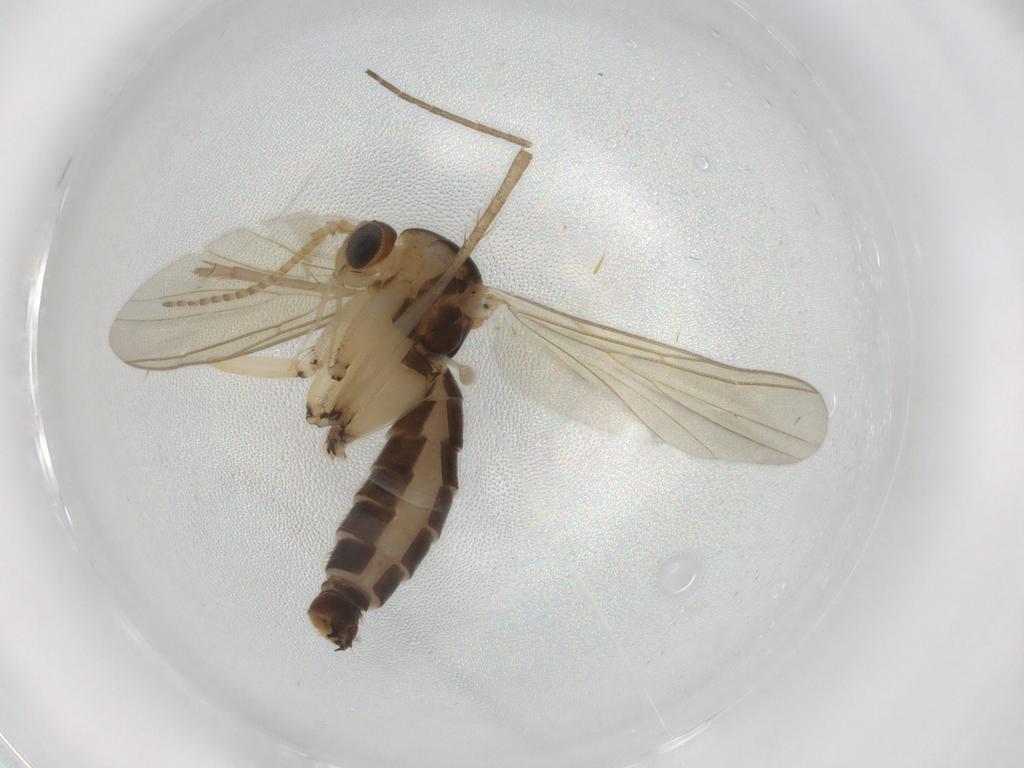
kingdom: Animalia
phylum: Arthropoda
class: Insecta
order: Diptera
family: Mycetophilidae
